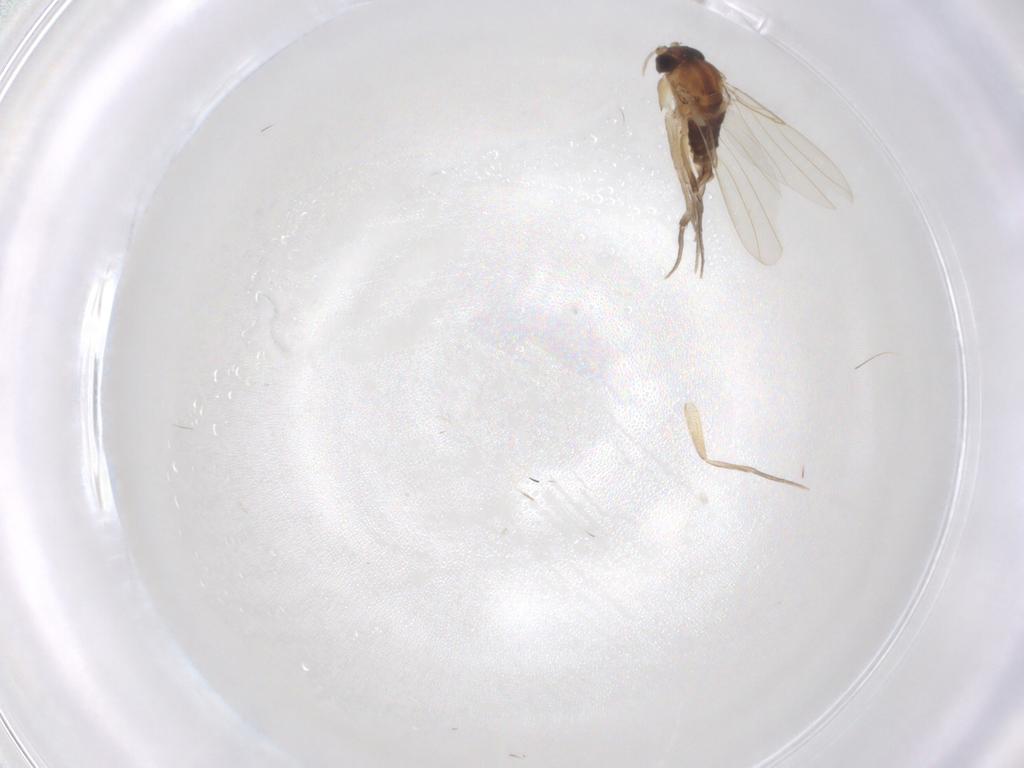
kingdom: Animalia
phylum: Arthropoda
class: Insecta
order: Diptera
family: Phoridae
